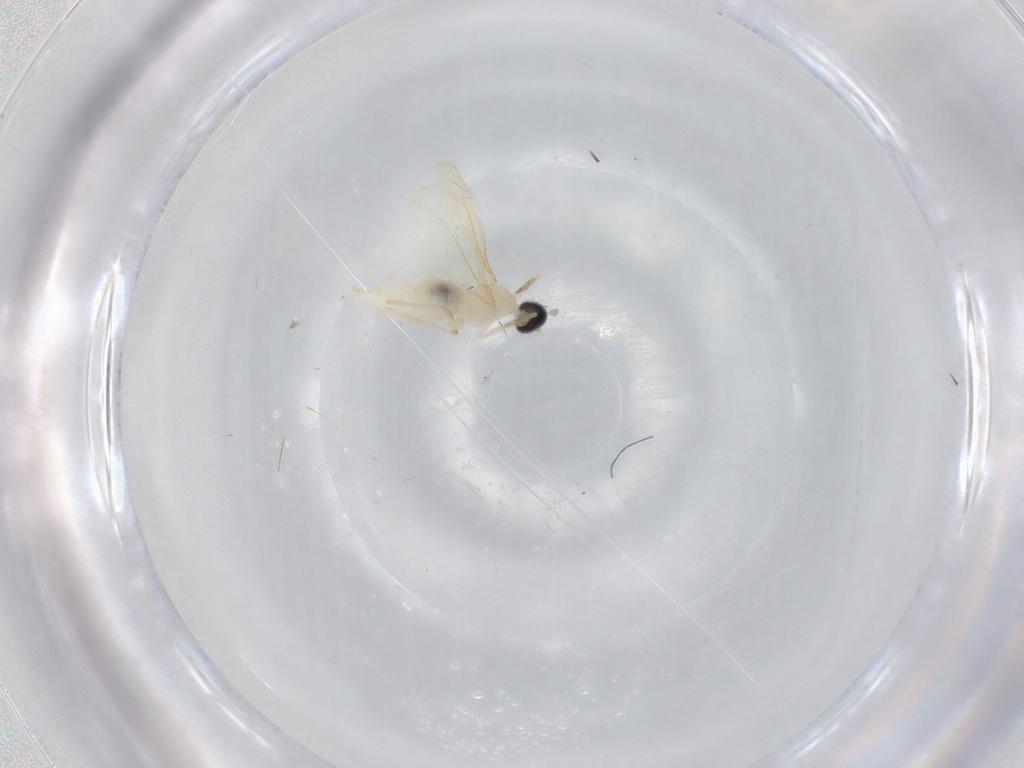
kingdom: Animalia
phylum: Arthropoda
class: Insecta
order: Diptera
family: Cecidomyiidae
